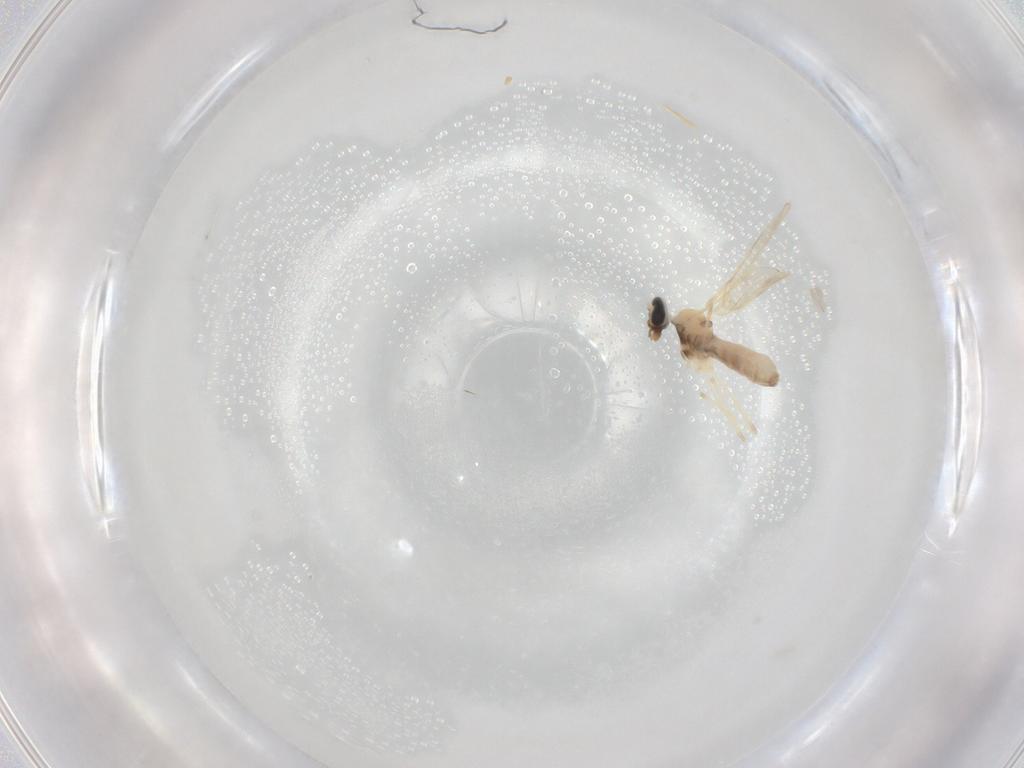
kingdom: Animalia
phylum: Arthropoda
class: Insecta
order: Diptera
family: Cecidomyiidae
